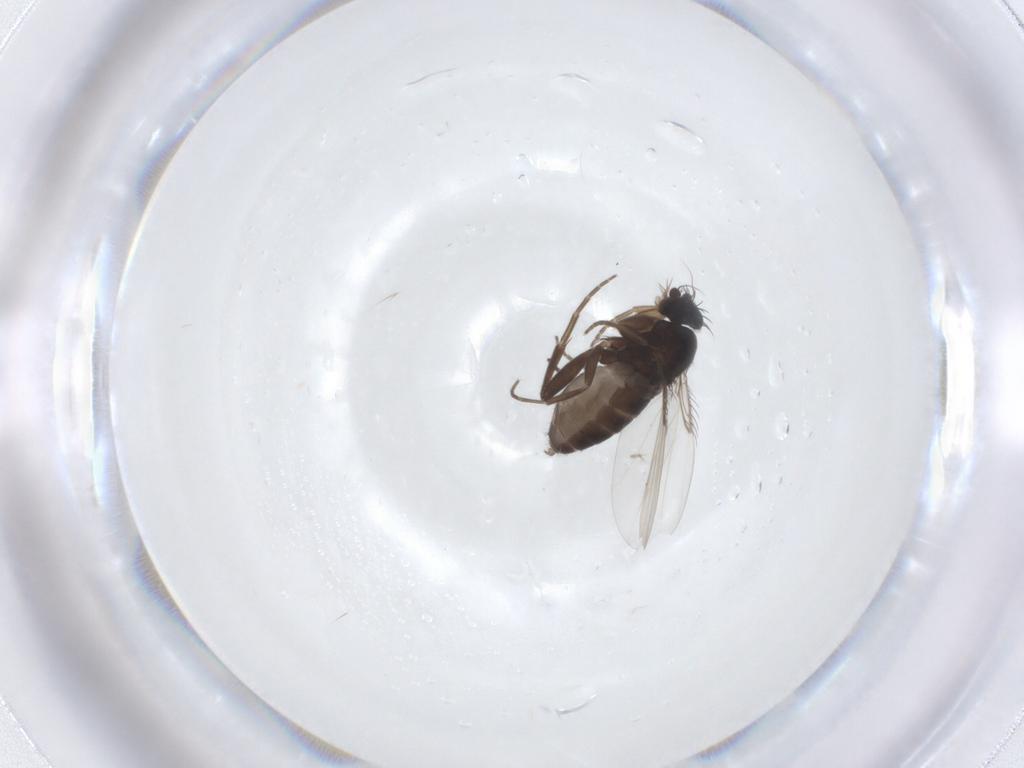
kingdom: Animalia
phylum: Arthropoda
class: Insecta
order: Diptera
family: Phoridae
